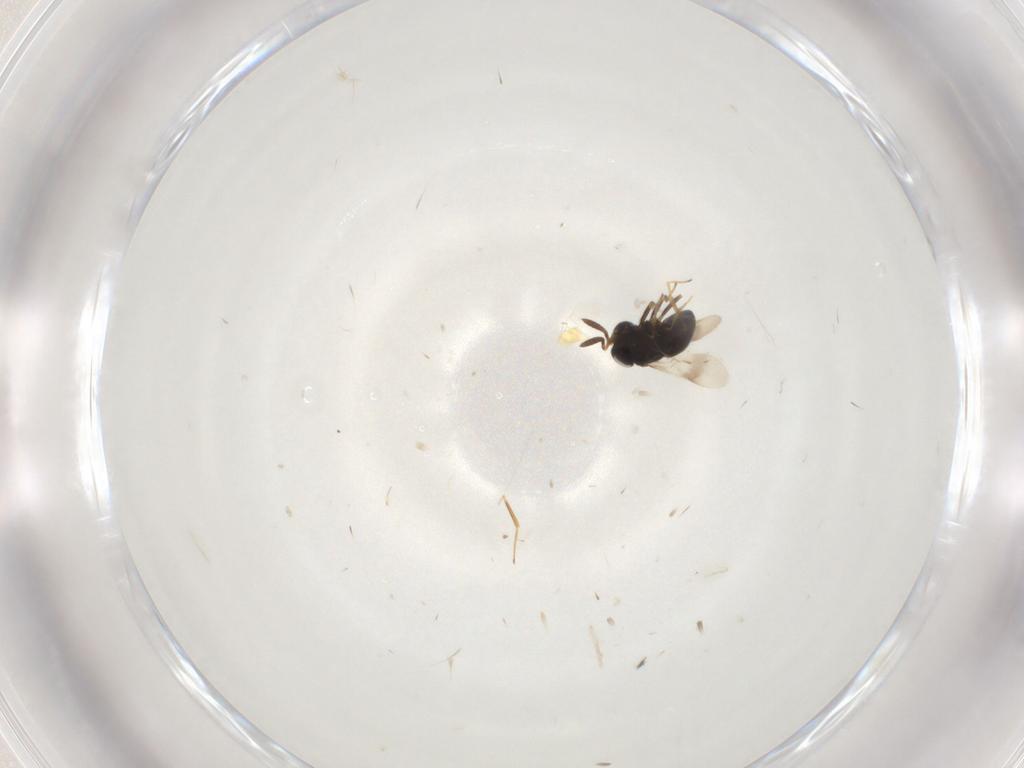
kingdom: Animalia
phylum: Arthropoda
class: Insecta
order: Hymenoptera
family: Scelionidae
